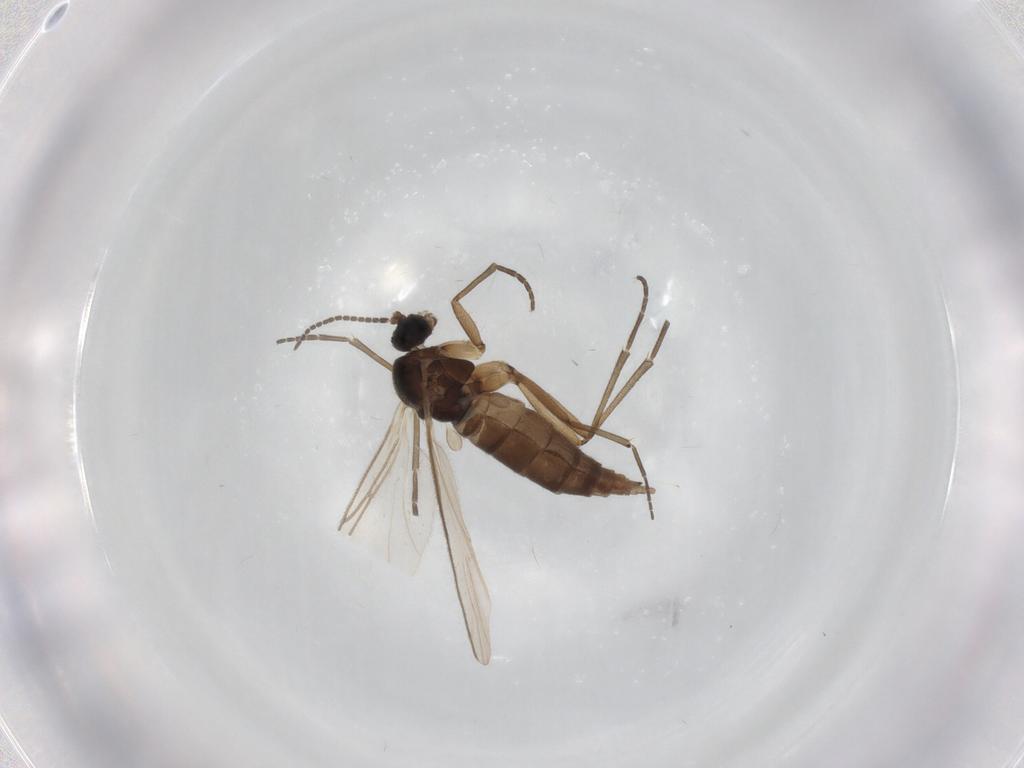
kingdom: Animalia
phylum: Arthropoda
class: Insecta
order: Diptera
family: Sciaridae
